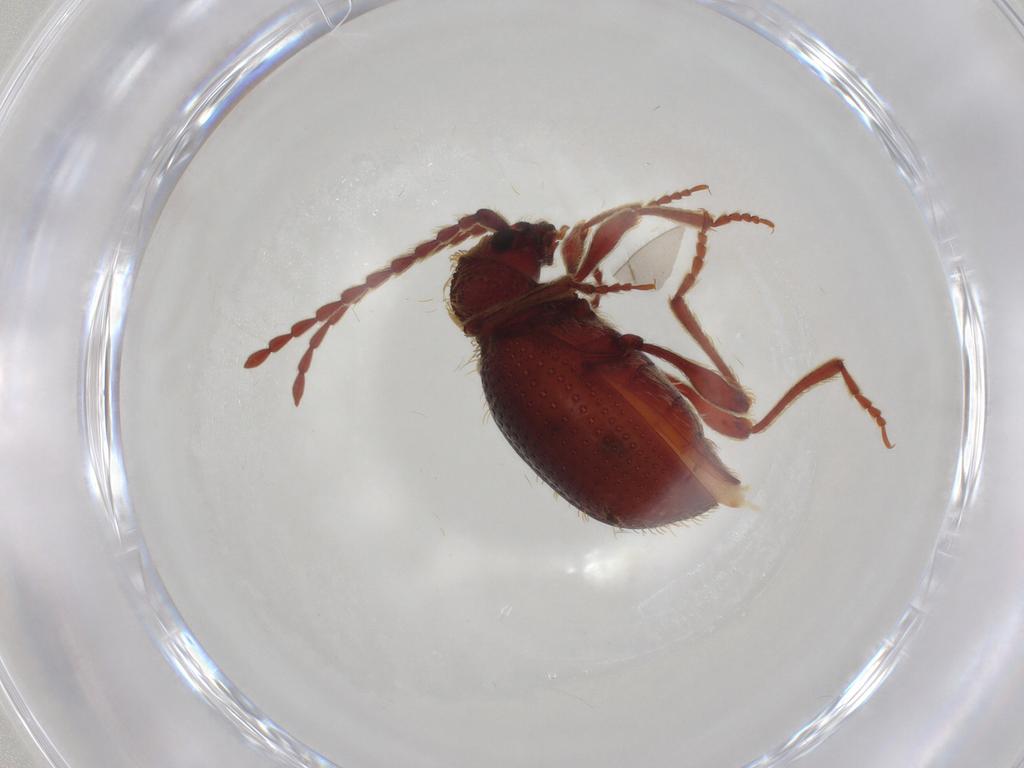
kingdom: Animalia
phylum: Arthropoda
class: Insecta
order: Coleoptera
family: Ptinidae
